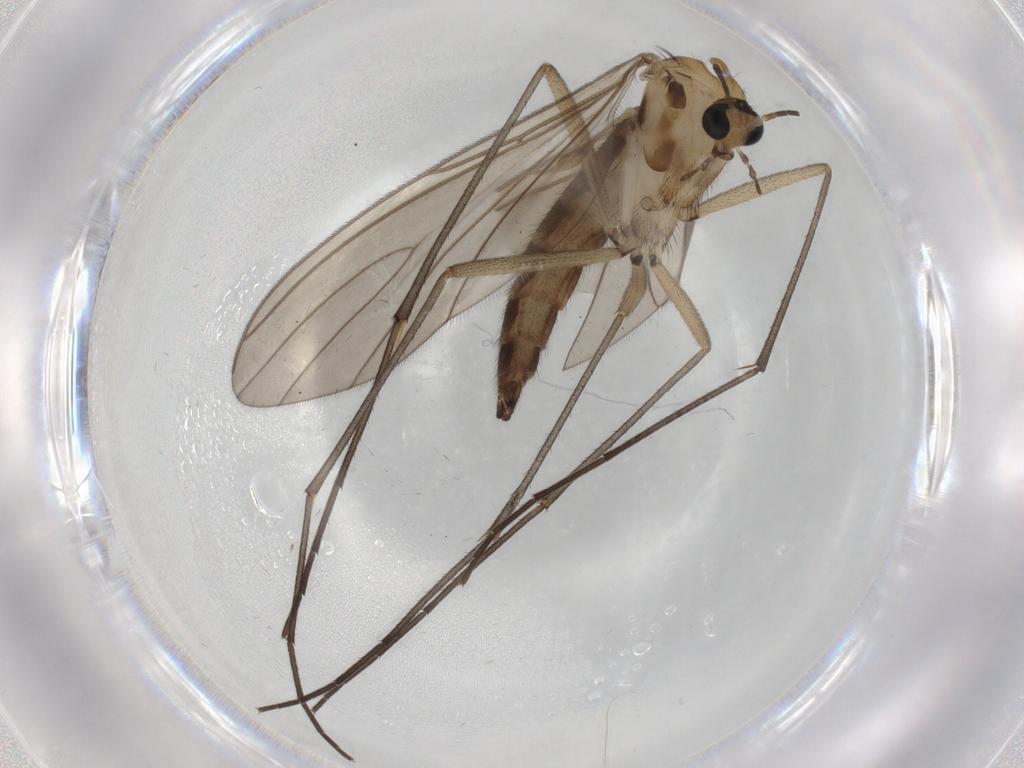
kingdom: Animalia
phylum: Arthropoda
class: Insecta
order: Diptera
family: Sciaridae
